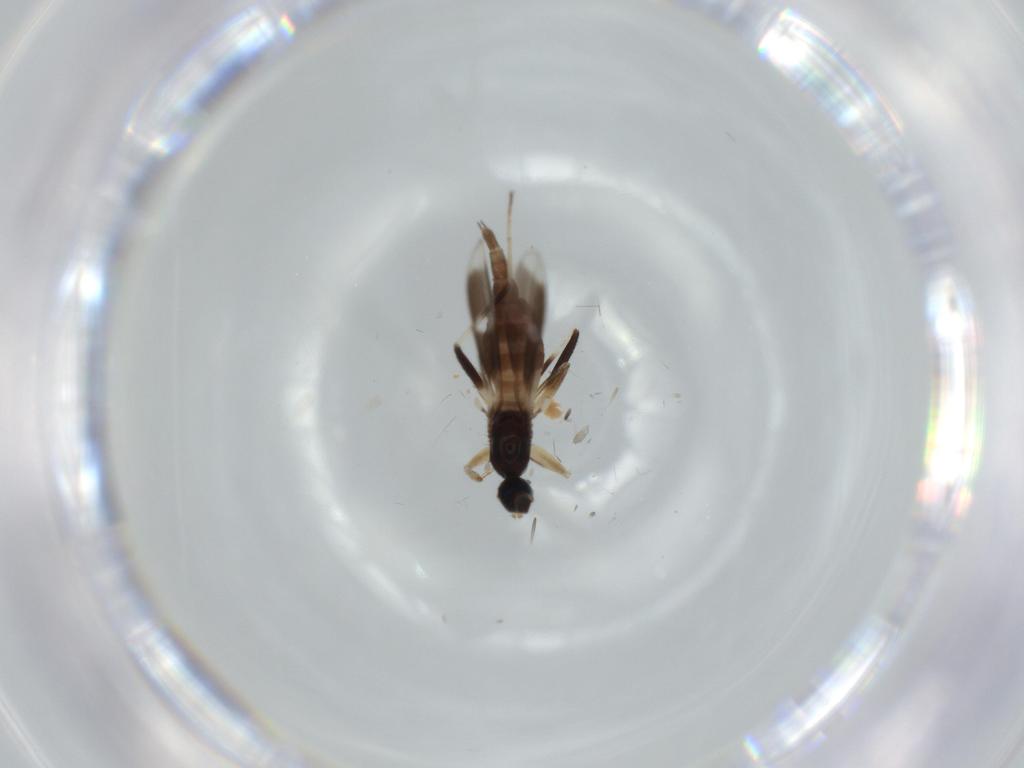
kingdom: Animalia
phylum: Arthropoda
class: Insecta
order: Diptera
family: Hybotidae
